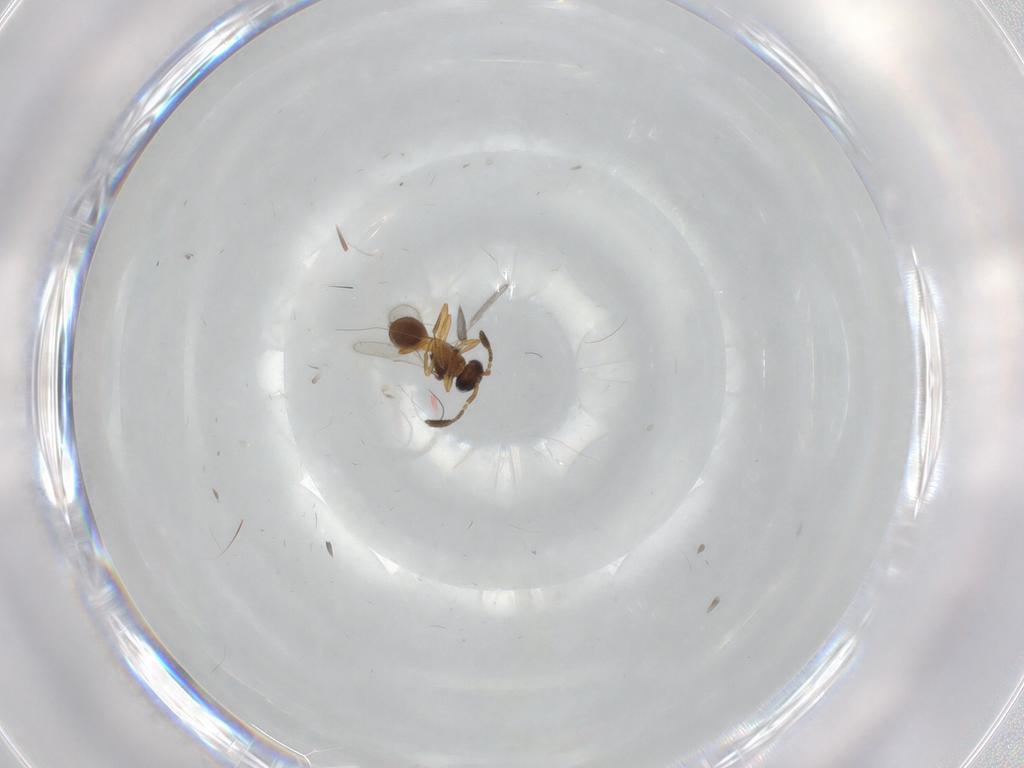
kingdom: Animalia
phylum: Arthropoda
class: Insecta
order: Hymenoptera
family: Scelionidae
